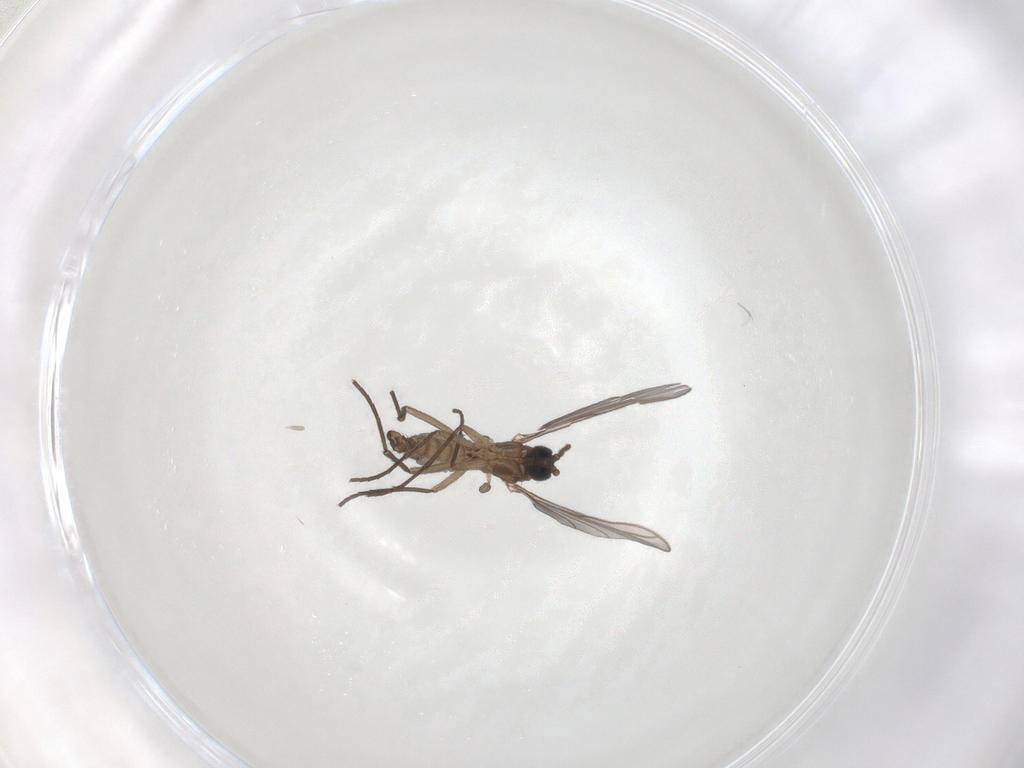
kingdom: Animalia
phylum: Arthropoda
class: Insecta
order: Diptera
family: Chironomidae
